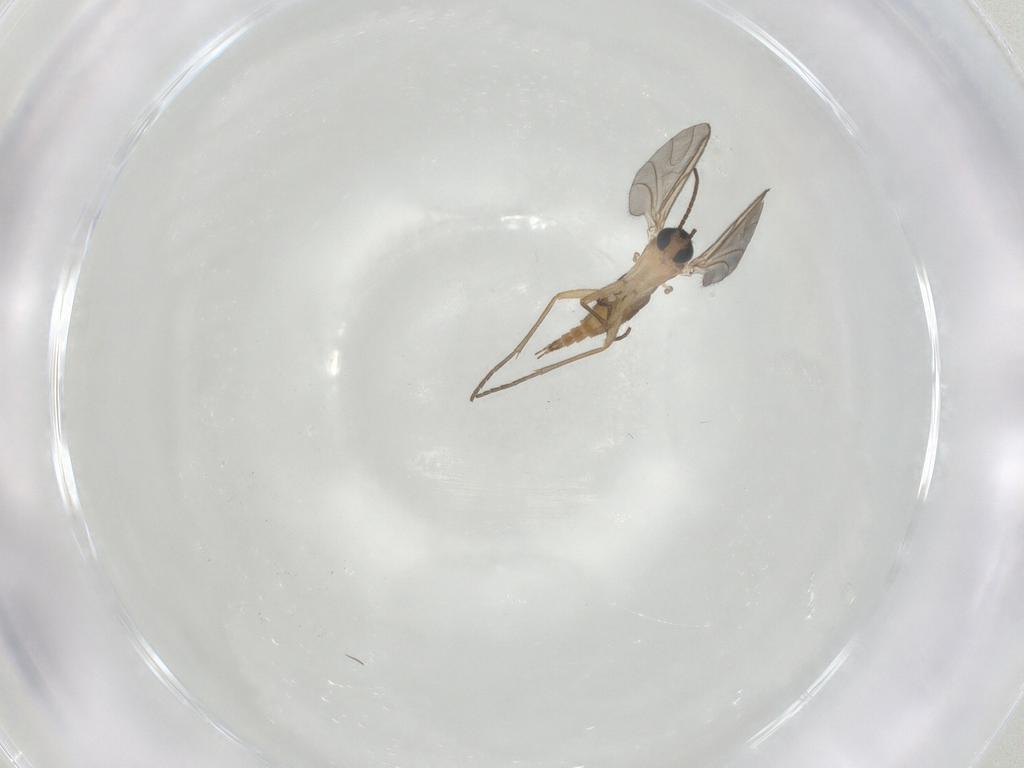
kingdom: Animalia
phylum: Arthropoda
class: Insecta
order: Diptera
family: Sciaridae
